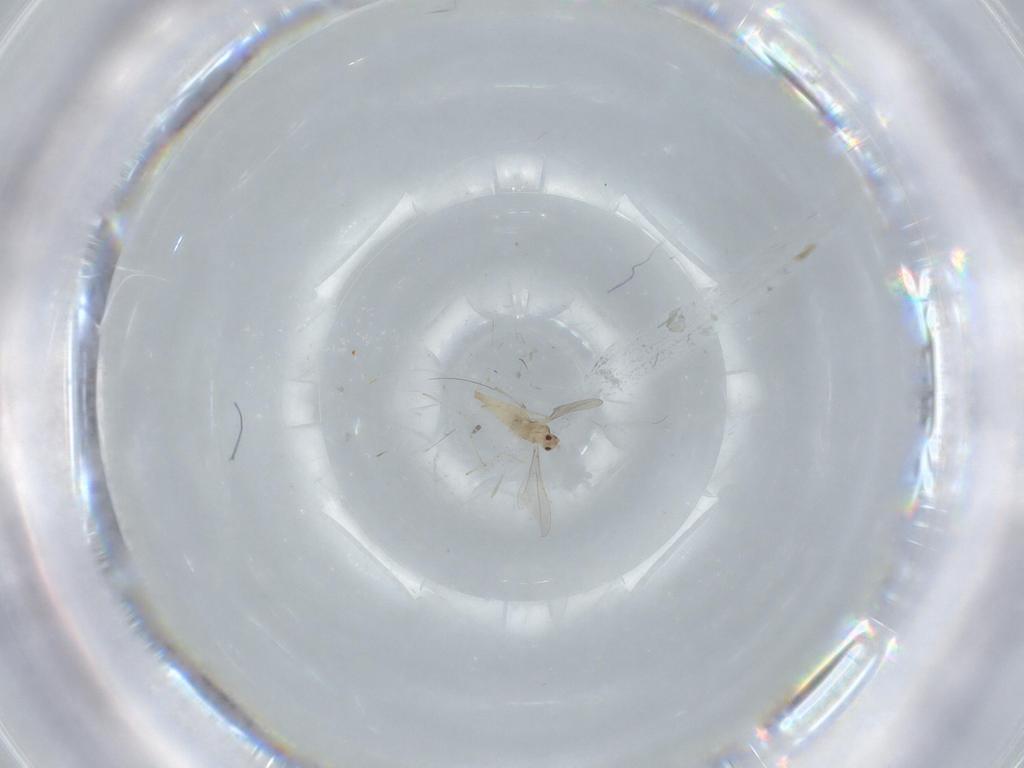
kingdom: Animalia
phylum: Arthropoda
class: Insecta
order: Diptera
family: Cecidomyiidae
